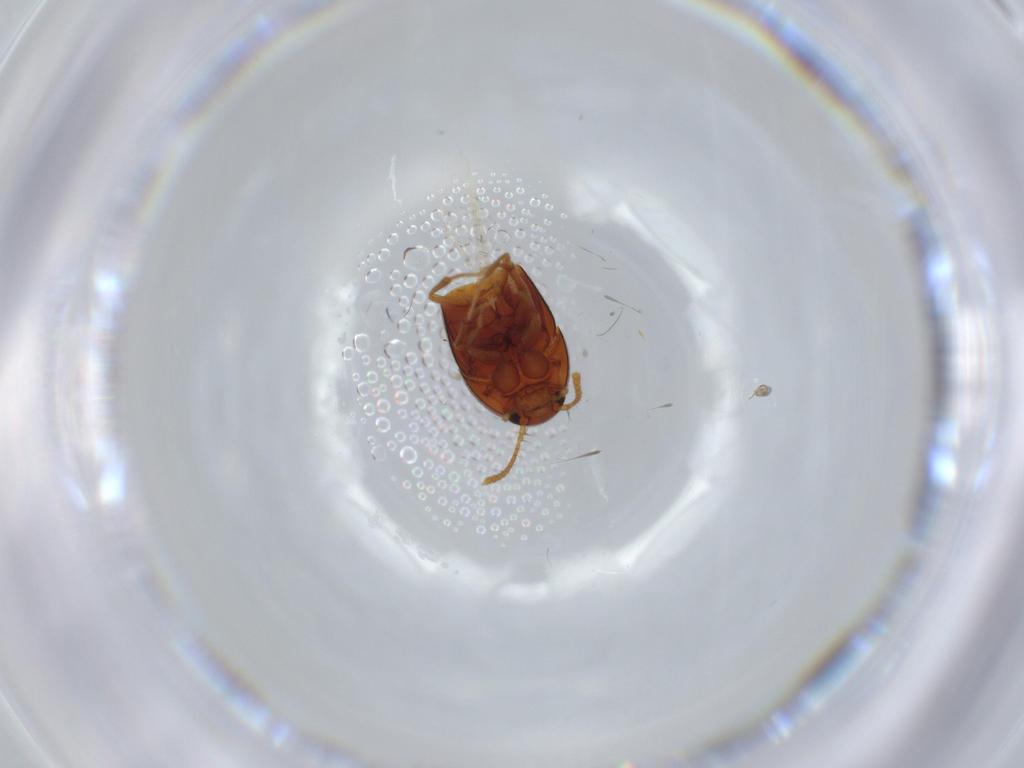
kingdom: Animalia
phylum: Arthropoda
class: Insecta
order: Coleoptera
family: Staphylinidae
